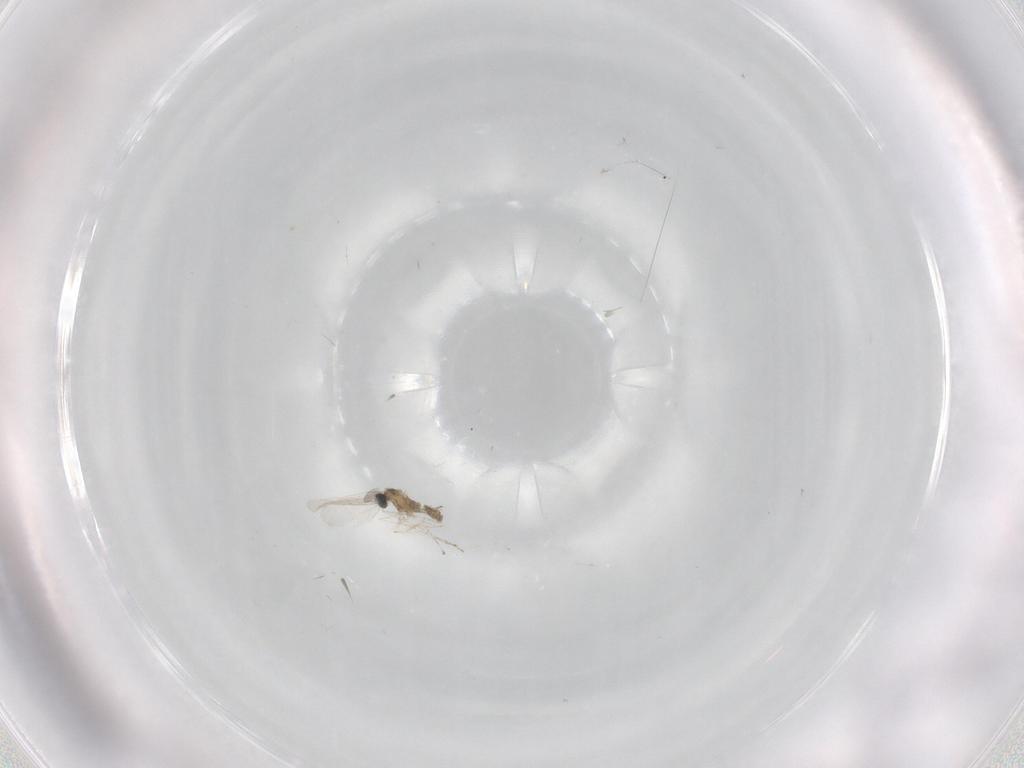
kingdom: Animalia
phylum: Arthropoda
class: Insecta
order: Diptera
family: Cecidomyiidae
